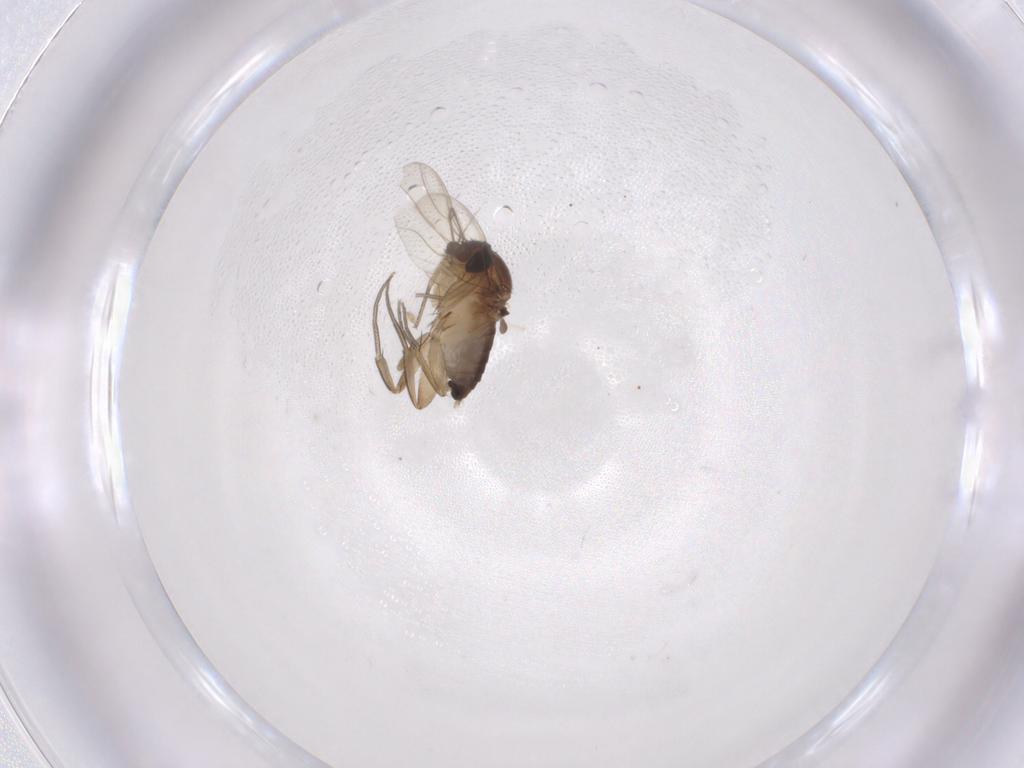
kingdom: Animalia
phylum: Arthropoda
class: Insecta
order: Diptera
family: Phoridae
